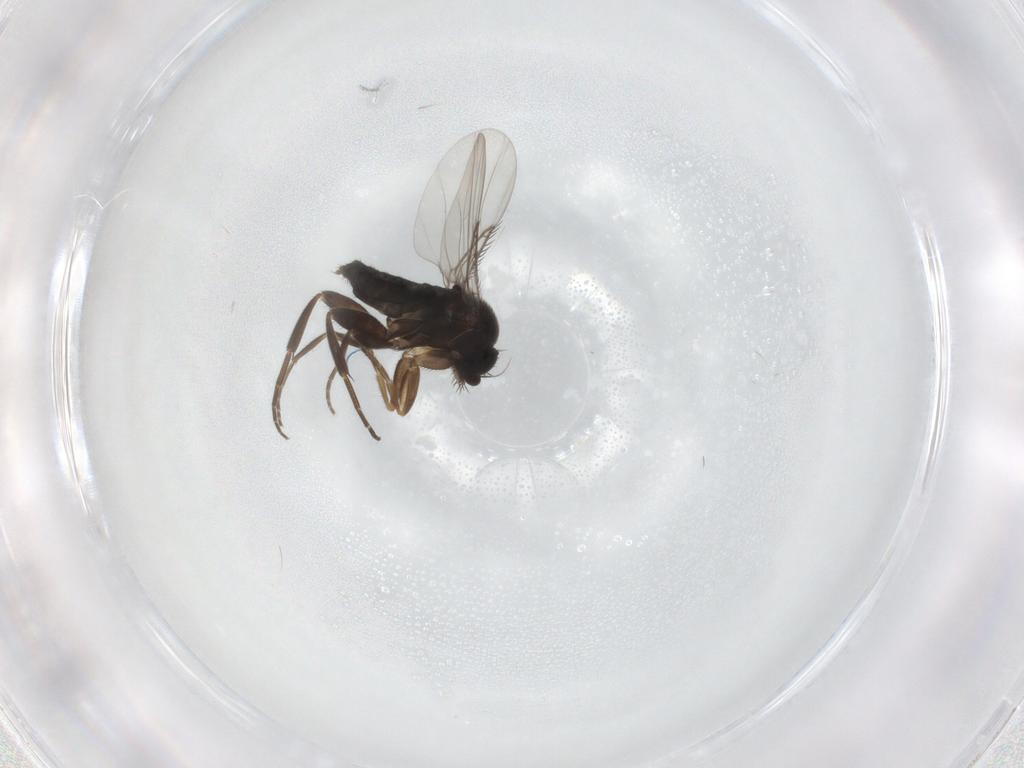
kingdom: Animalia
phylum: Arthropoda
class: Insecta
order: Diptera
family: Phoridae
